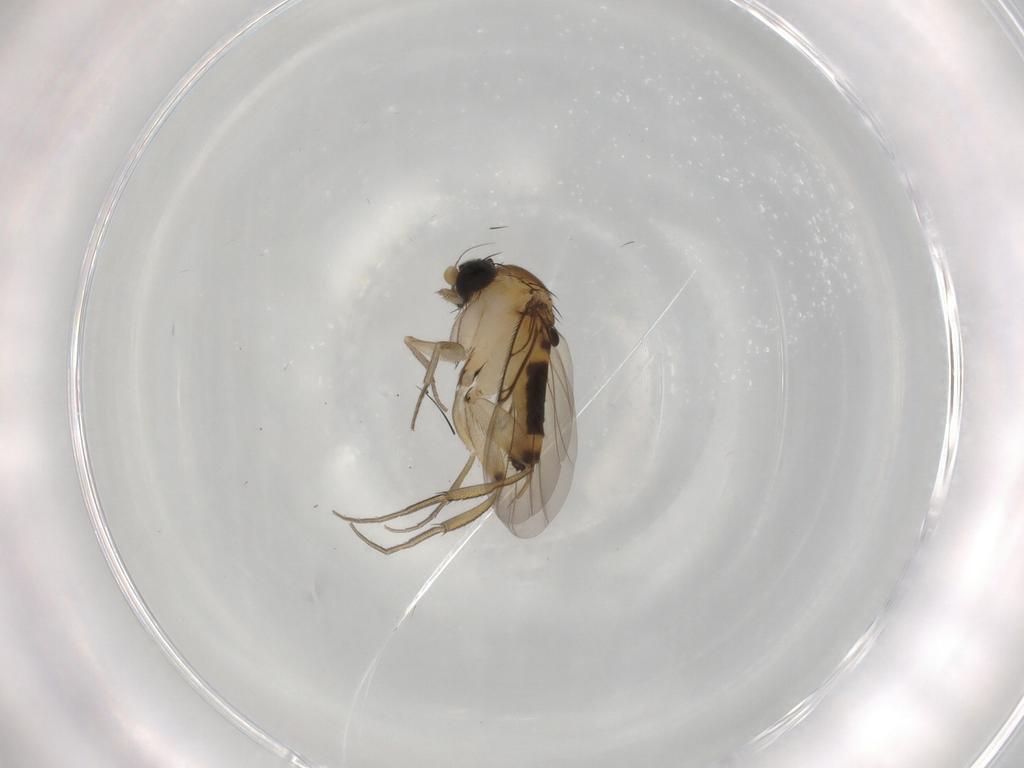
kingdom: Animalia
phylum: Arthropoda
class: Insecta
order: Diptera
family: Phoridae
